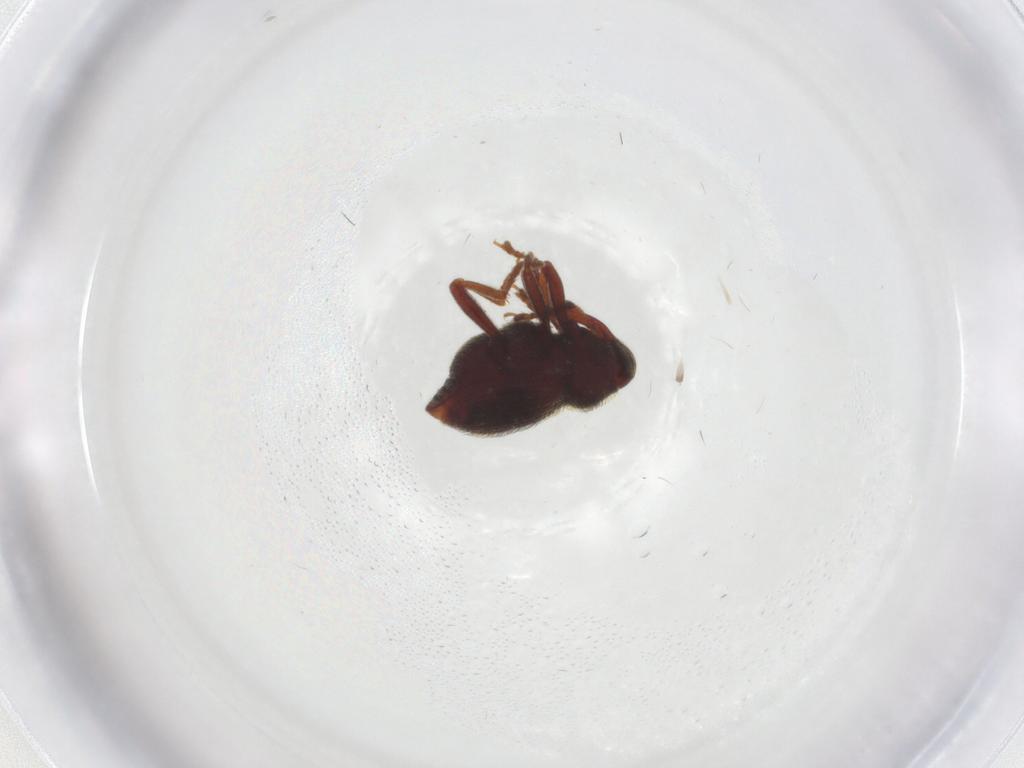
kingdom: Animalia
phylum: Arthropoda
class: Insecta
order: Coleoptera
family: Curculionidae
